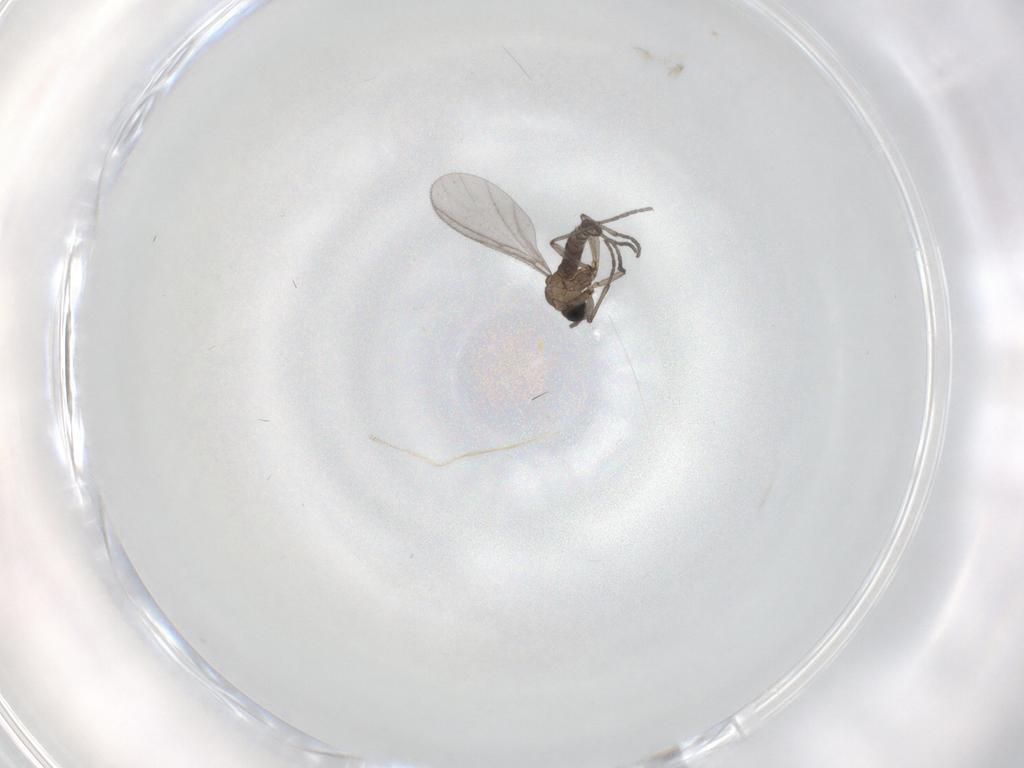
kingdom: Animalia
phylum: Arthropoda
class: Insecta
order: Diptera
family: Sciaridae
